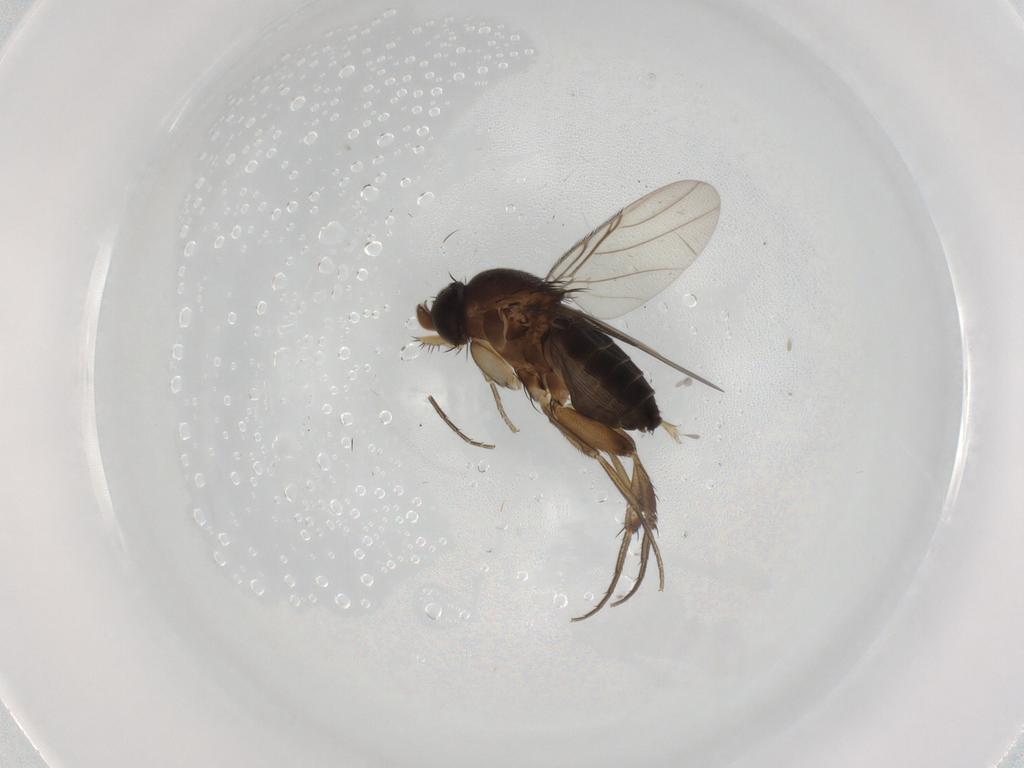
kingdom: Animalia
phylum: Arthropoda
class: Insecta
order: Diptera
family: Phoridae
